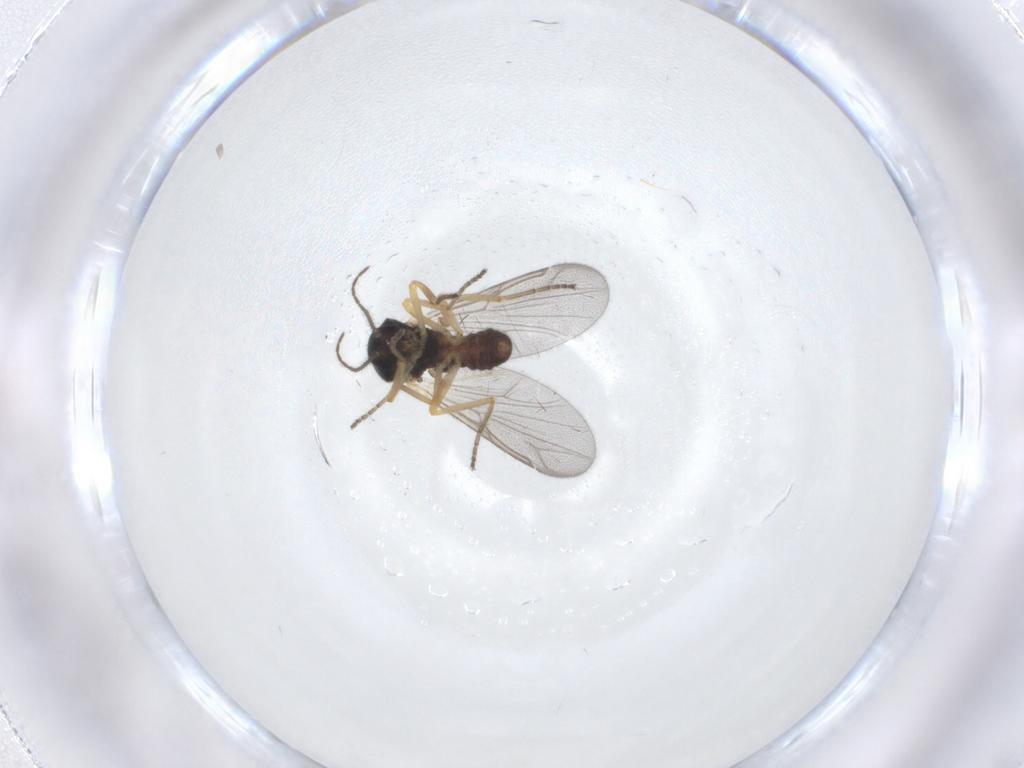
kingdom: Animalia
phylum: Arthropoda
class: Insecta
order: Diptera
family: Ceratopogonidae
